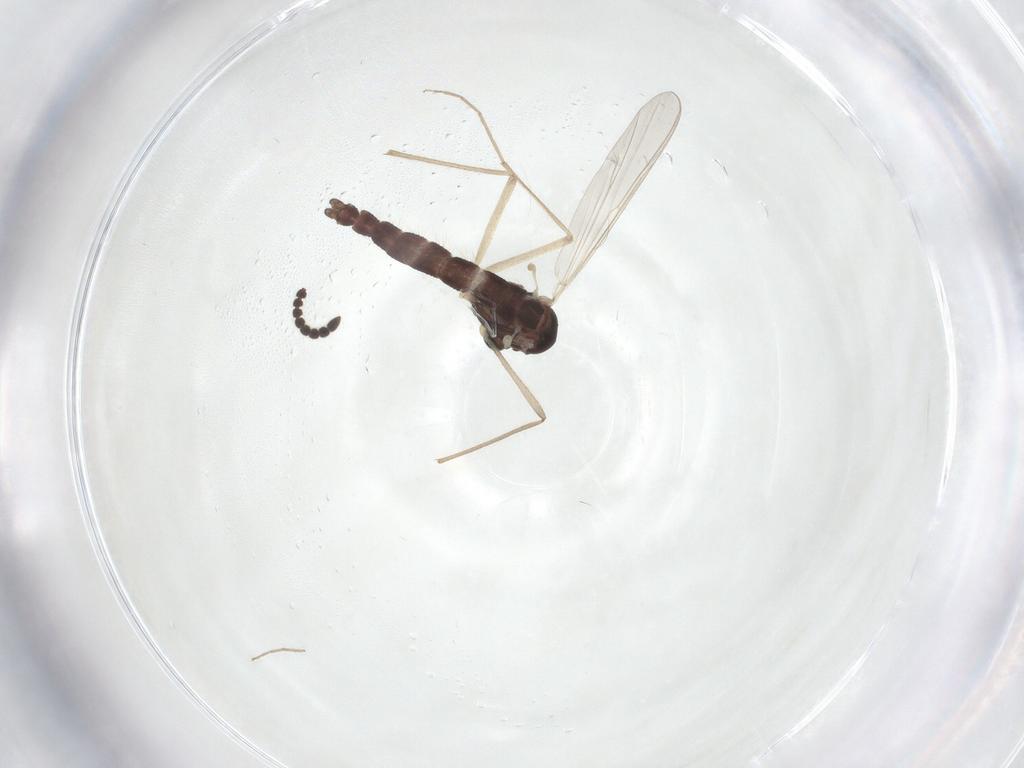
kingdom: Animalia
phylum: Arthropoda
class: Insecta
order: Diptera
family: Chironomidae
